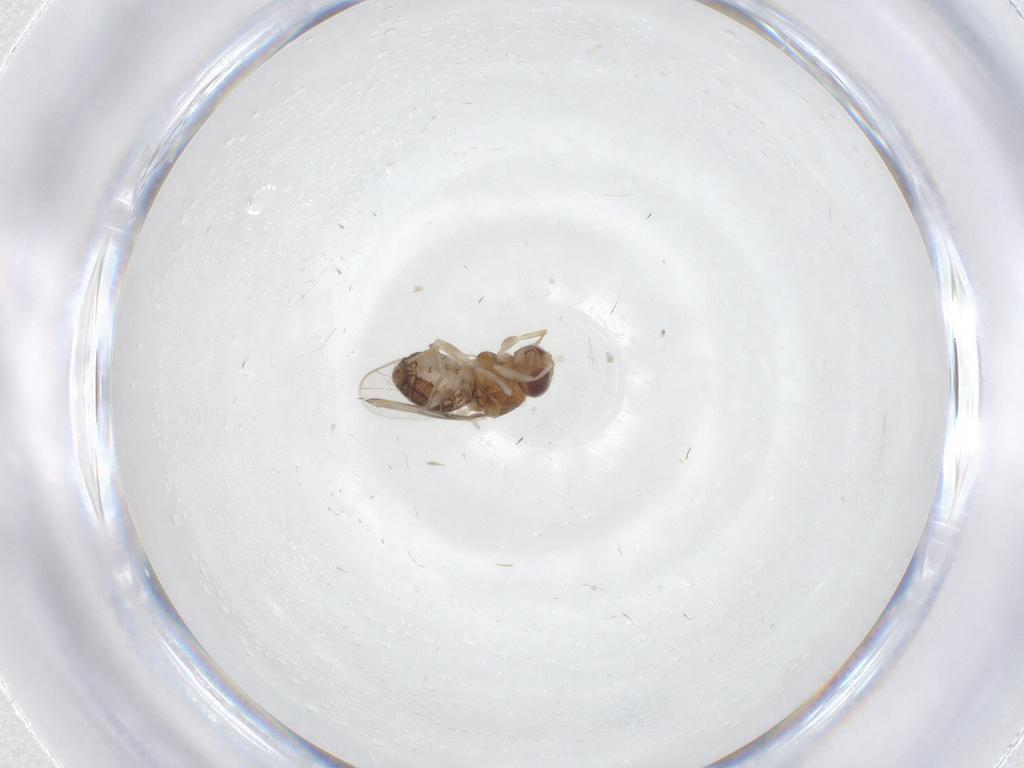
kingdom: Animalia
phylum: Arthropoda
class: Insecta
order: Diptera
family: Chloropidae
